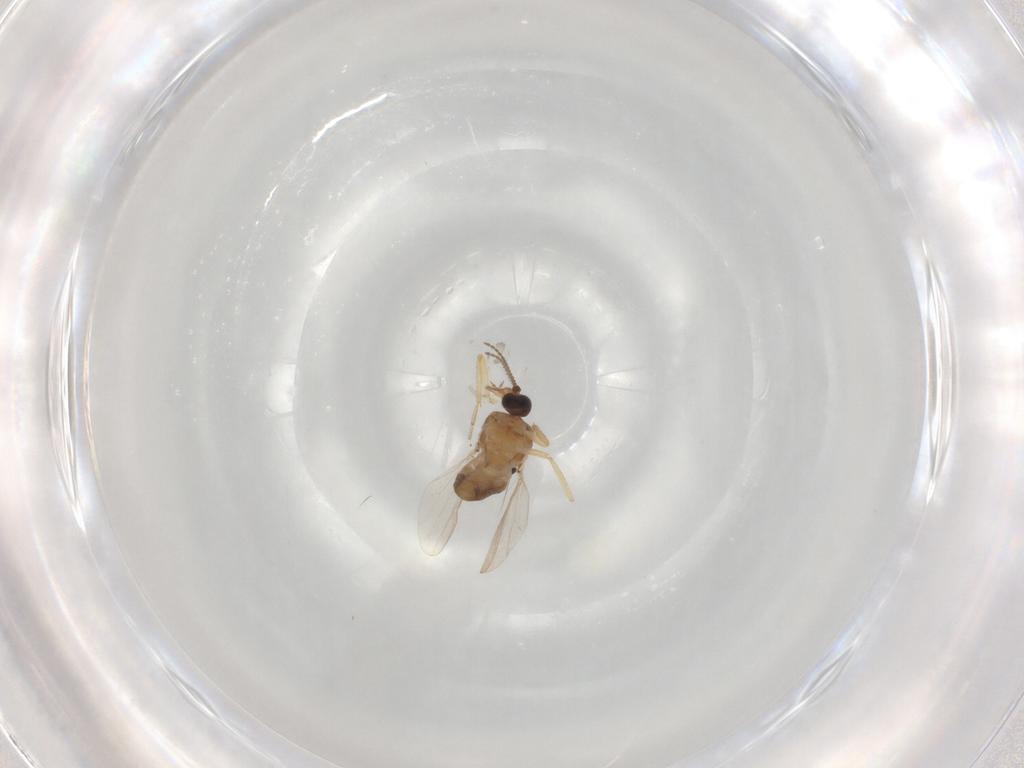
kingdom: Animalia
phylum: Arthropoda
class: Insecta
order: Diptera
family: Ceratopogonidae
